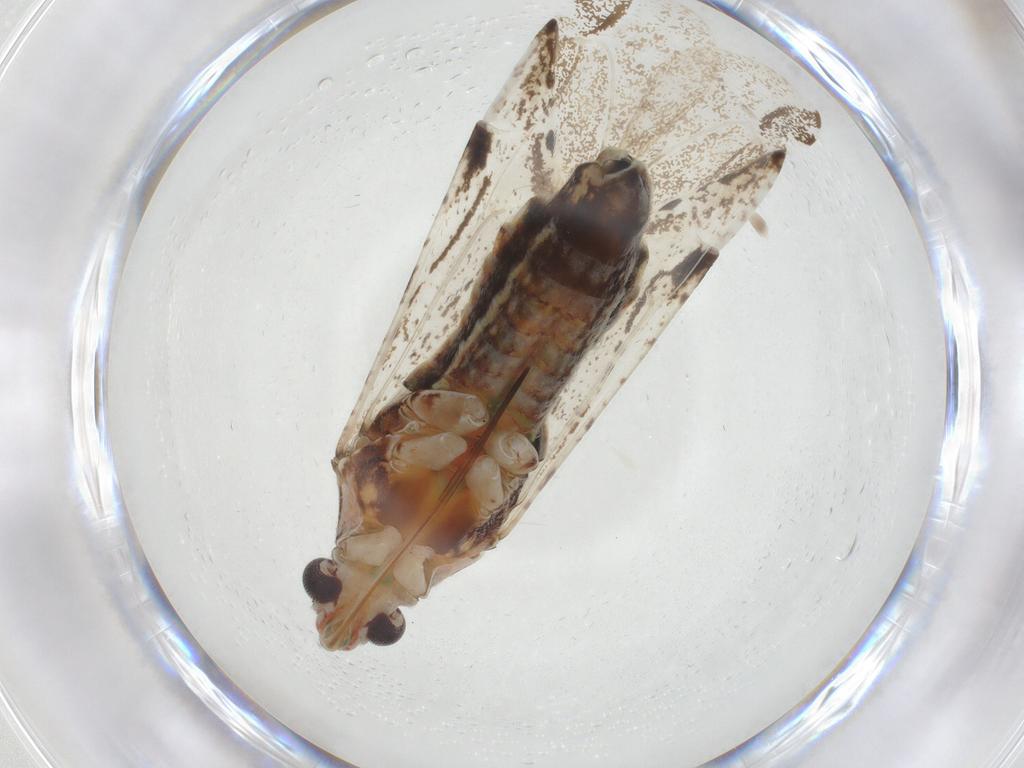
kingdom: Animalia
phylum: Arthropoda
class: Insecta
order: Hemiptera
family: Miridae
